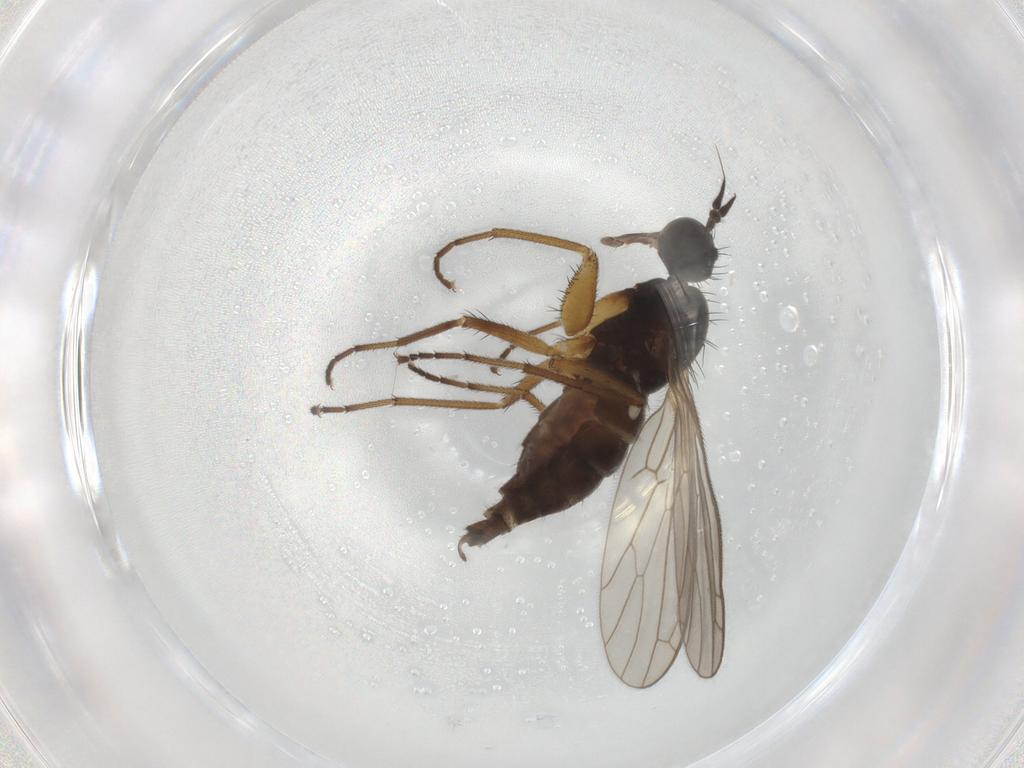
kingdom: Animalia
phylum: Arthropoda
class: Insecta
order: Diptera
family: Empididae
